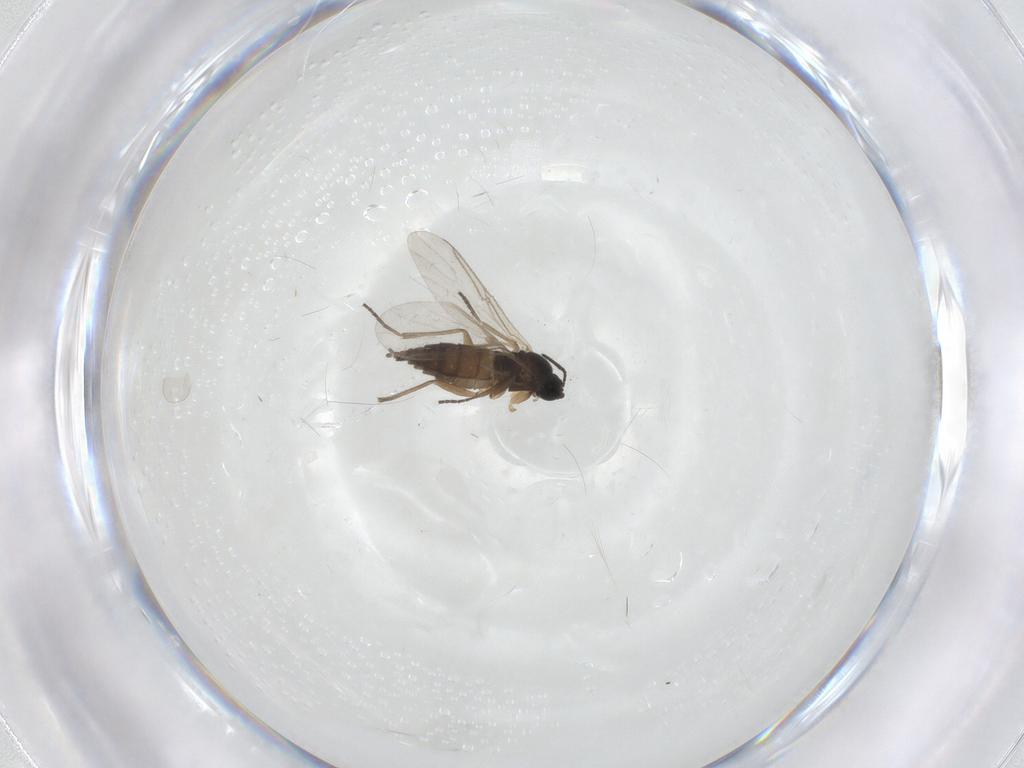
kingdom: Animalia
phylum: Arthropoda
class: Insecta
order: Diptera
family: Sciaridae
